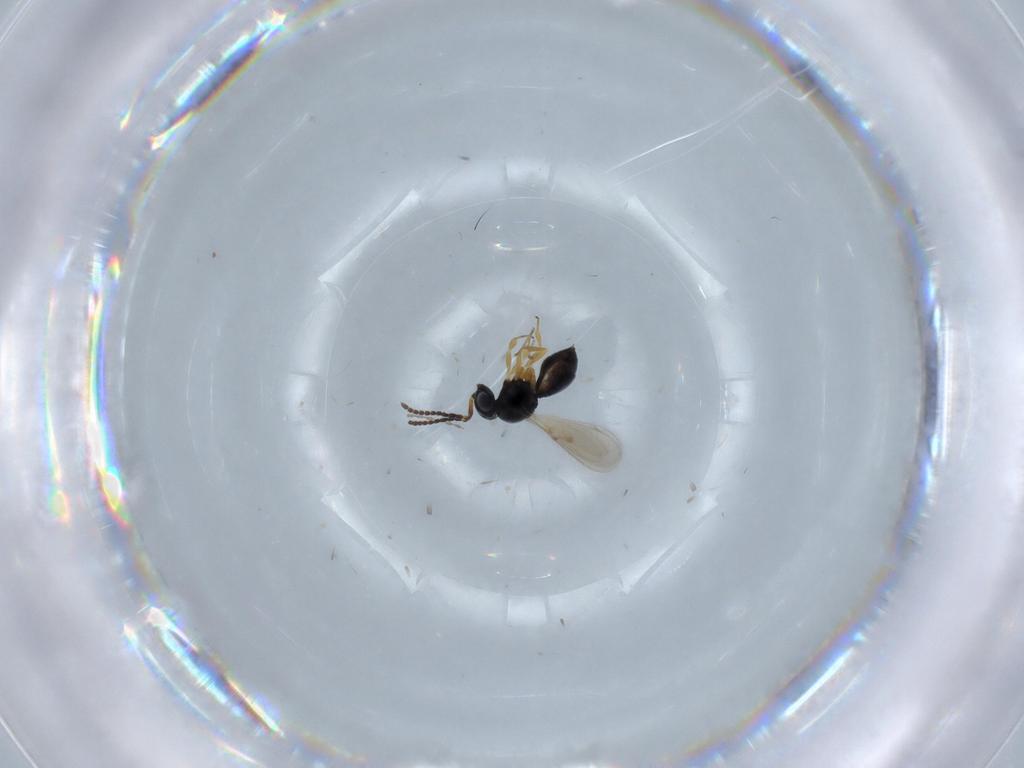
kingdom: Animalia
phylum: Arthropoda
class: Insecta
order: Hymenoptera
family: Scelionidae
